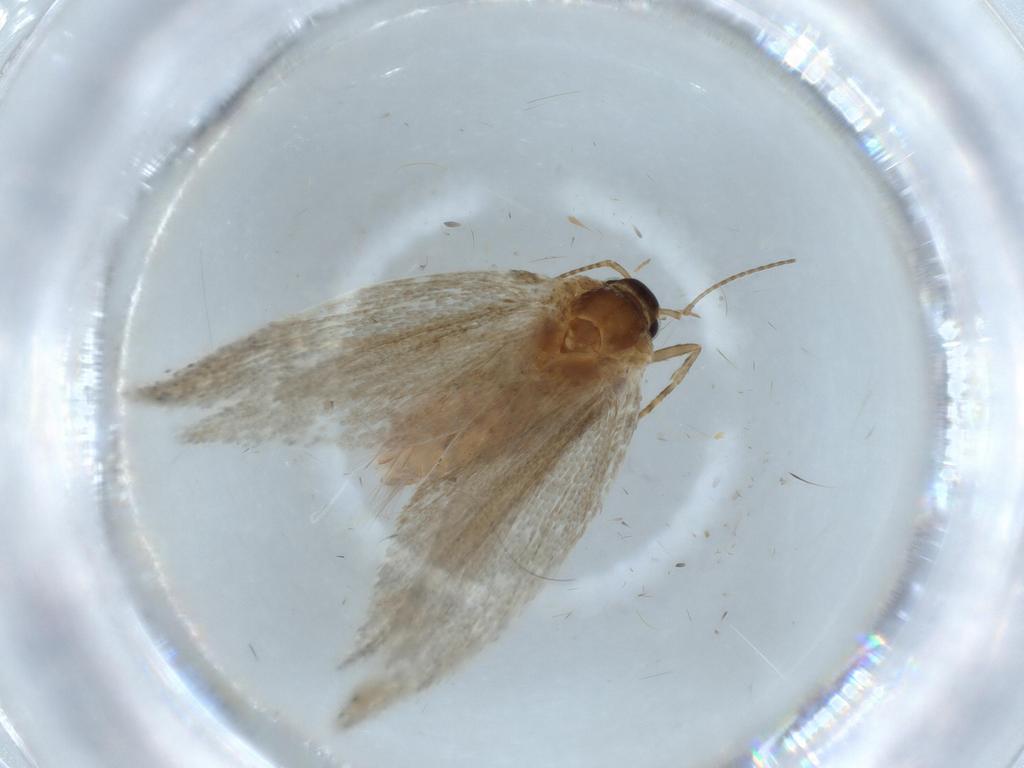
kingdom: Animalia
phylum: Arthropoda
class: Insecta
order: Lepidoptera
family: Oecophoridae
